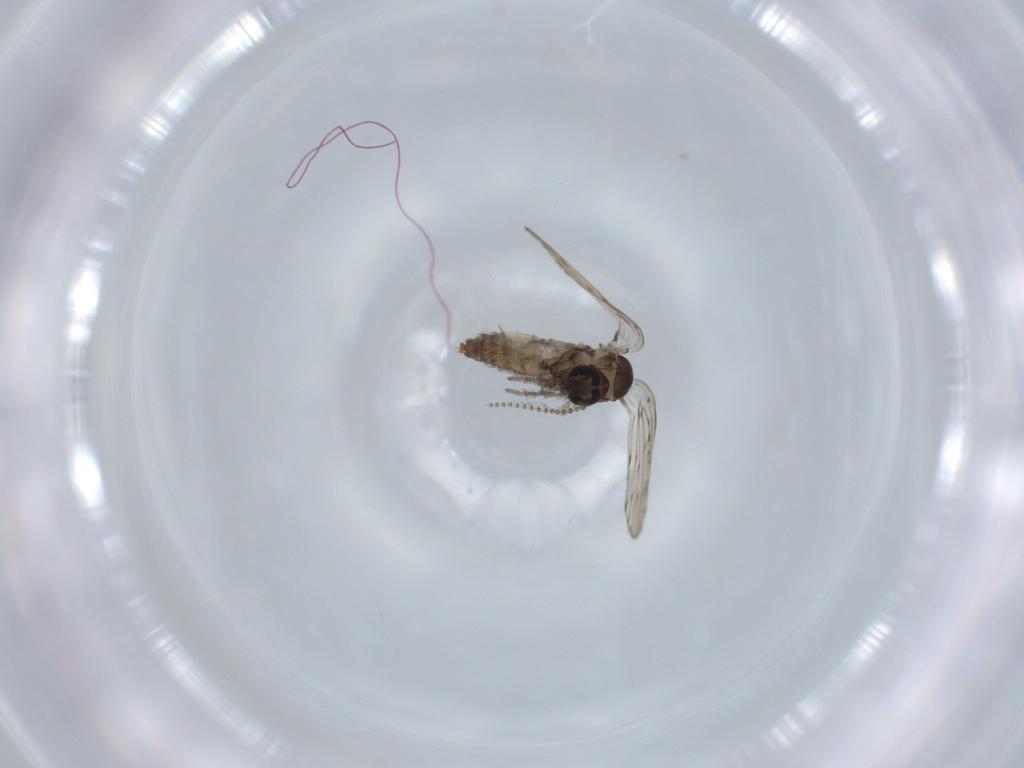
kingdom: Animalia
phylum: Arthropoda
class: Insecta
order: Diptera
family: Psychodidae
